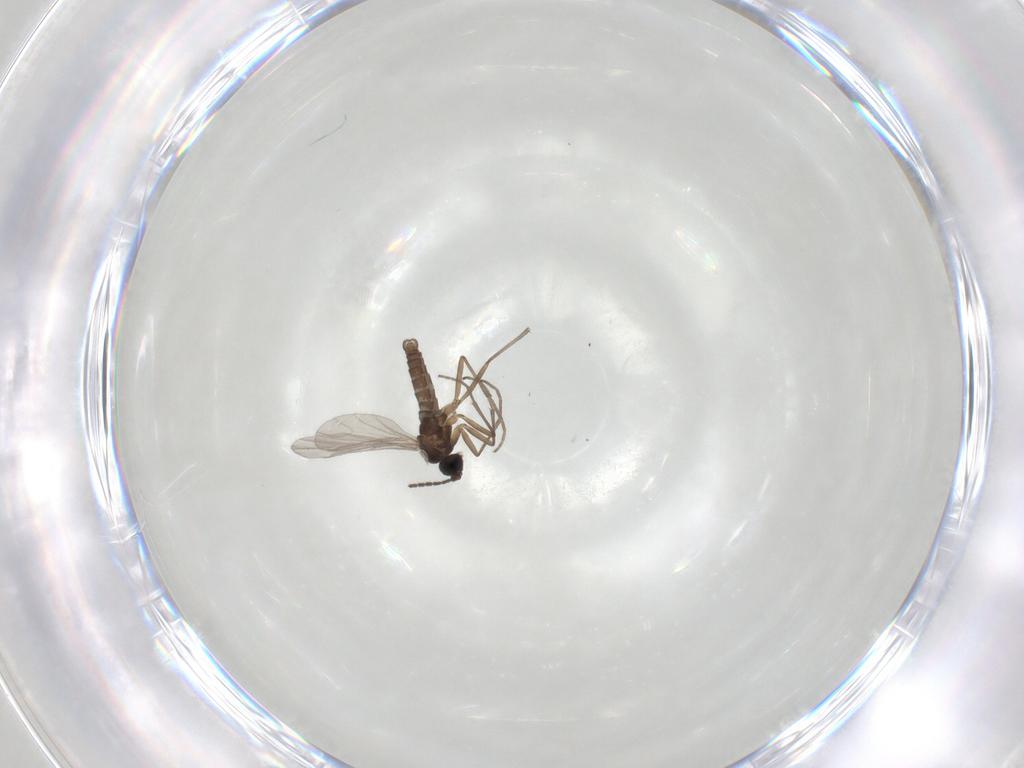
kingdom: Animalia
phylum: Arthropoda
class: Insecta
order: Diptera
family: Sciaridae
